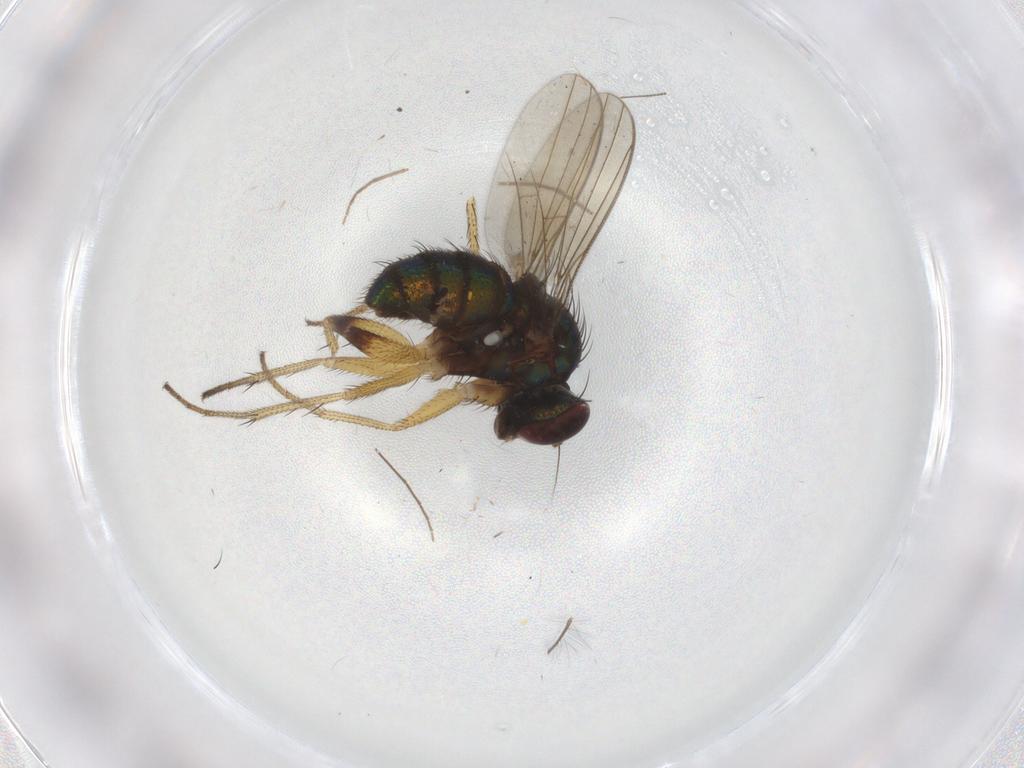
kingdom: Animalia
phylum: Arthropoda
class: Insecta
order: Diptera
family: Dolichopodidae
